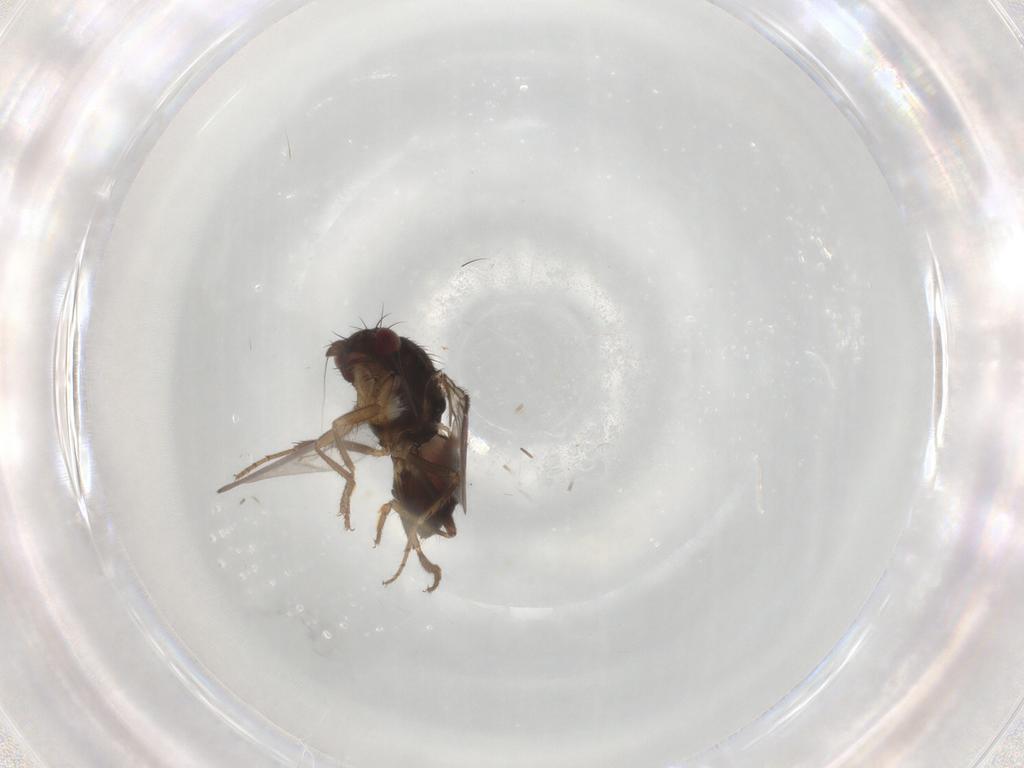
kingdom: Animalia
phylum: Arthropoda
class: Insecta
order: Diptera
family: Sphaeroceridae
